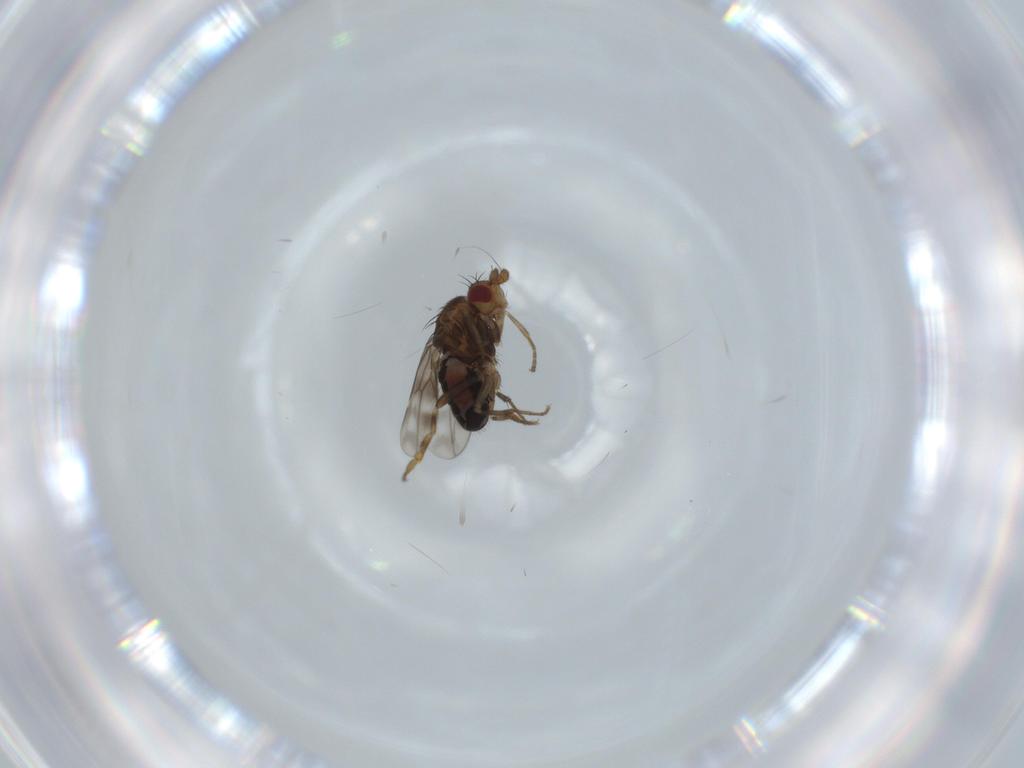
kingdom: Animalia
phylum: Arthropoda
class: Insecta
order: Diptera
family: Sphaeroceridae
